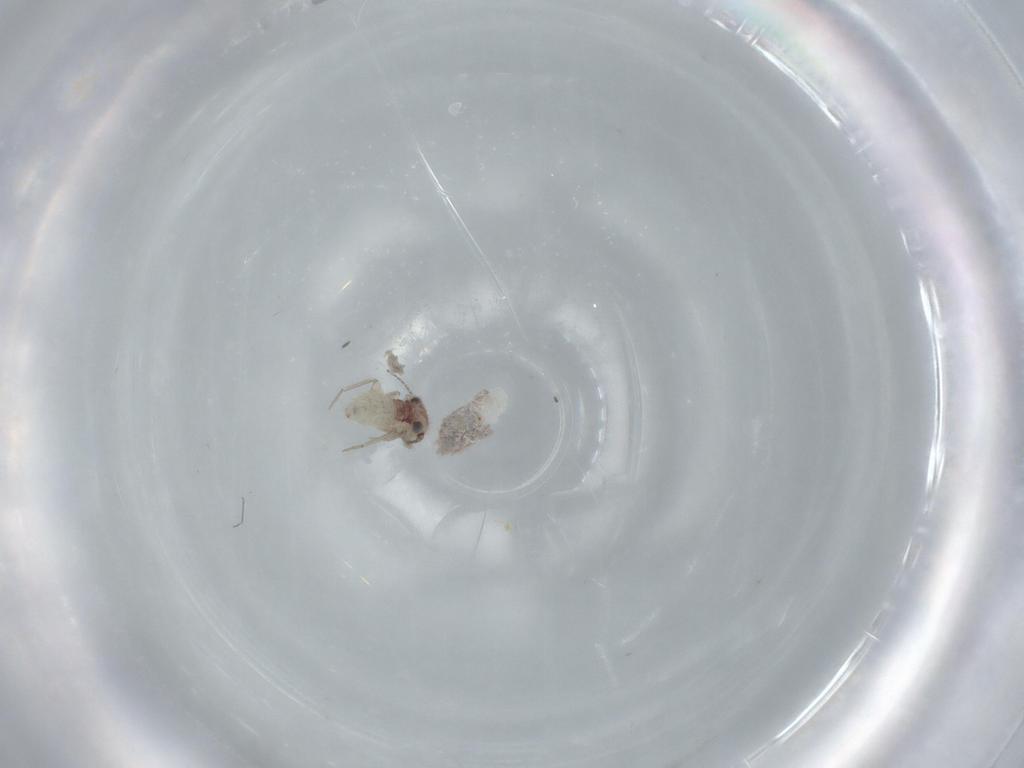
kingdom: Animalia
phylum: Arthropoda
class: Insecta
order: Psocodea
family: Lepidopsocidae
